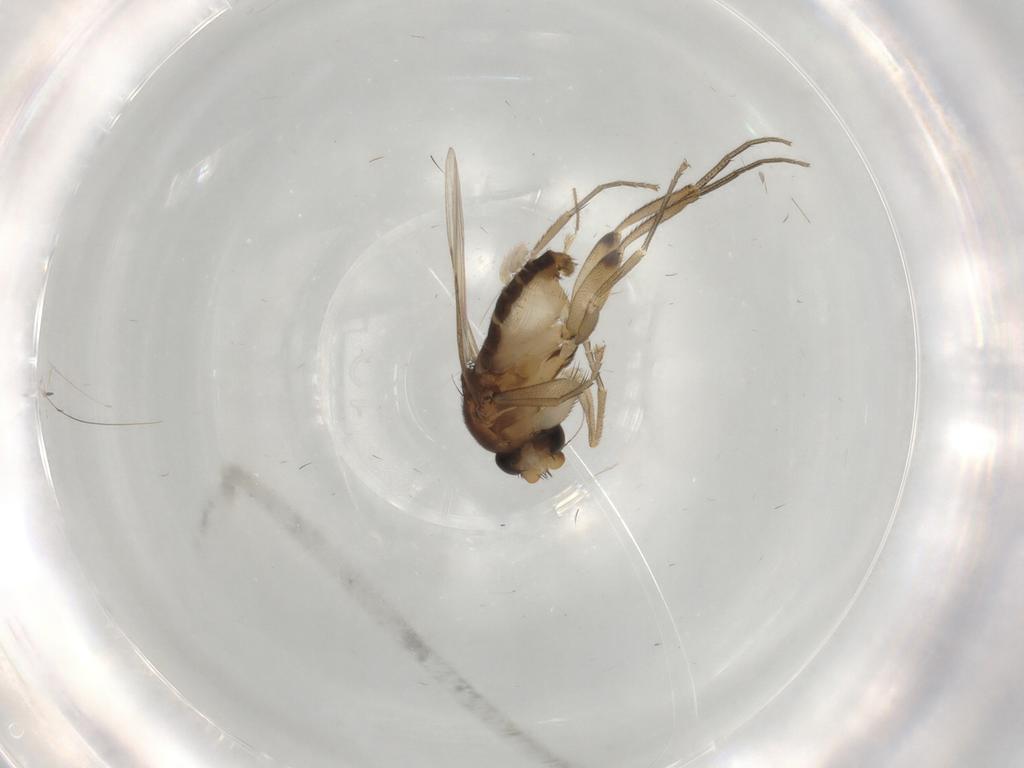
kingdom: Animalia
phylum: Arthropoda
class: Insecta
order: Diptera
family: Phoridae
